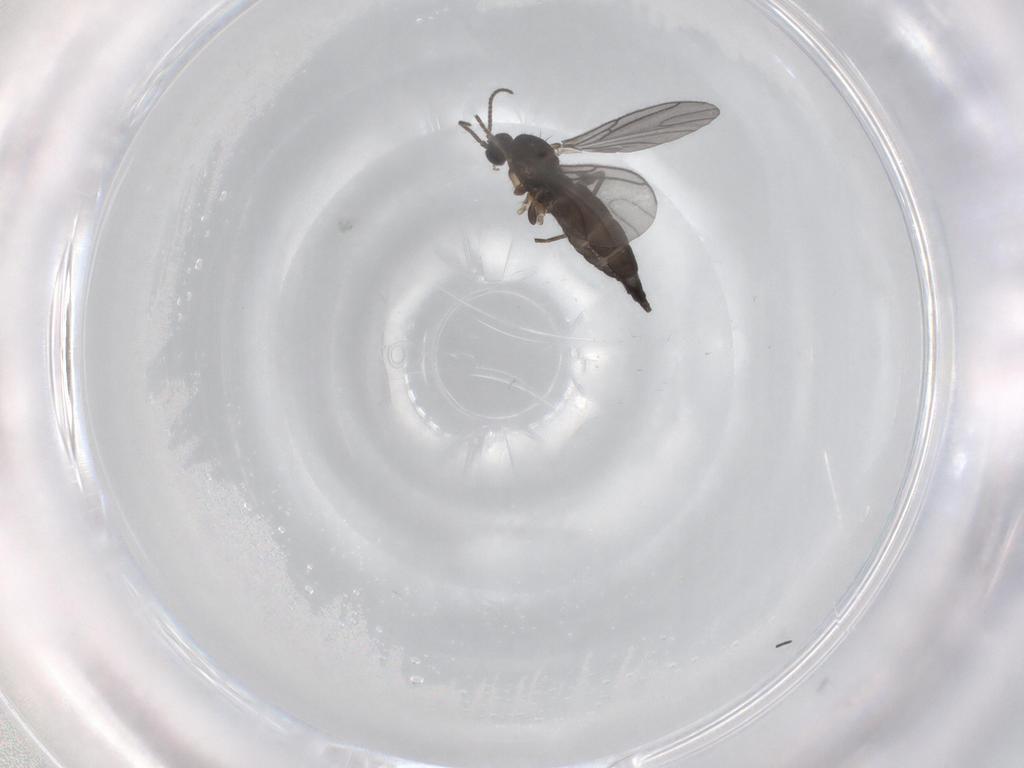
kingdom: Animalia
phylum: Arthropoda
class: Insecta
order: Diptera
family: Sciaridae
